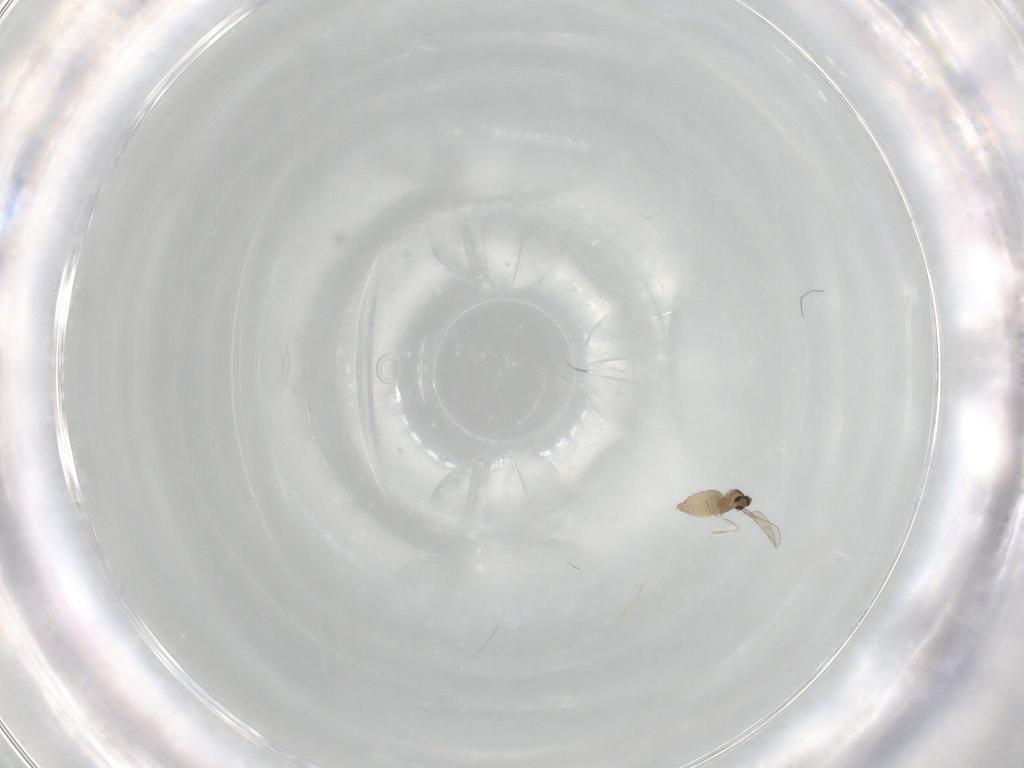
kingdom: Animalia
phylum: Arthropoda
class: Insecta
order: Diptera
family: Cecidomyiidae
